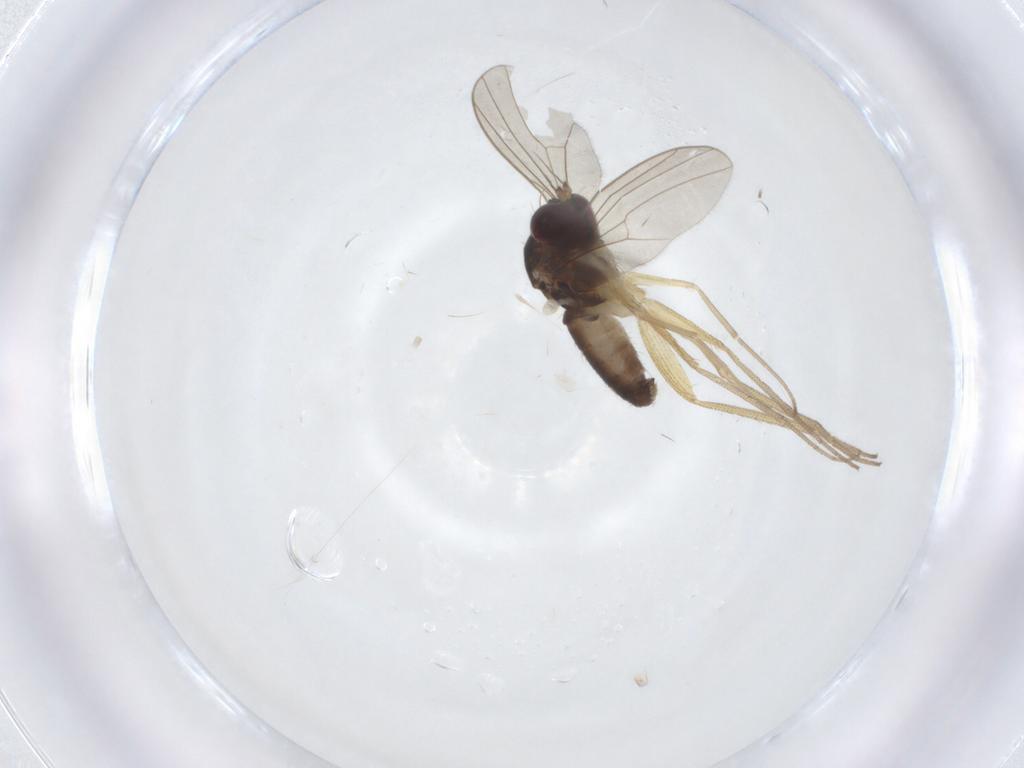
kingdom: Animalia
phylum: Arthropoda
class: Insecta
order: Diptera
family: Dolichopodidae
